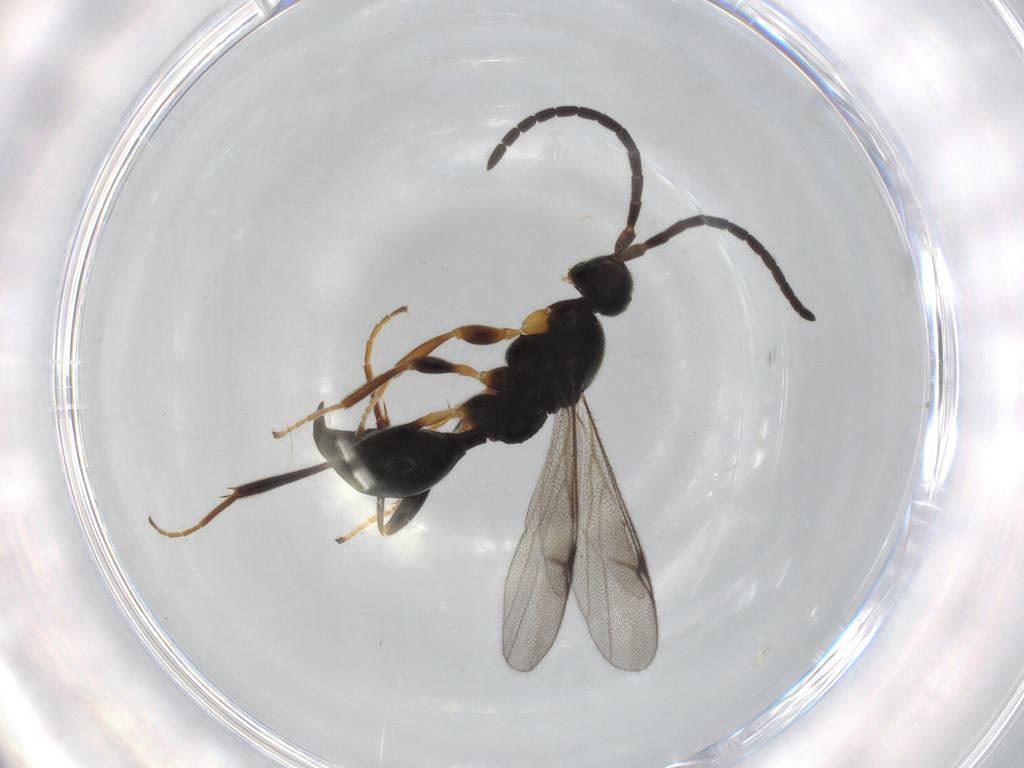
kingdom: Animalia
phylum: Arthropoda
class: Insecta
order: Hymenoptera
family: Proctotrupidae
